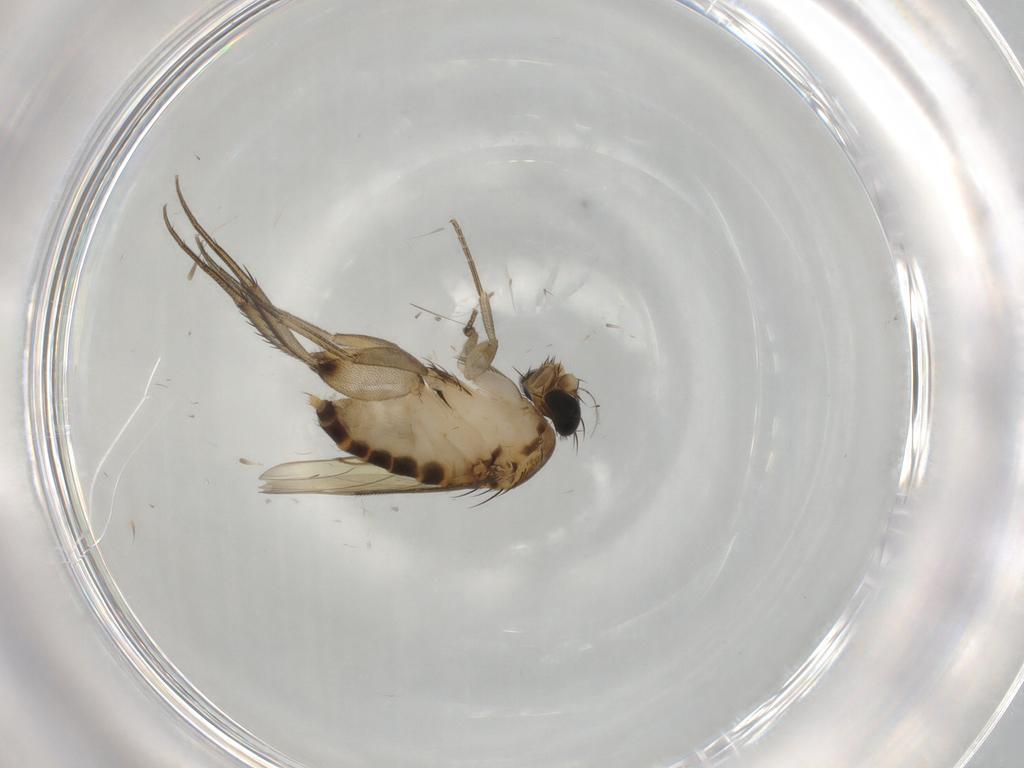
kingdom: Animalia
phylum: Arthropoda
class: Insecta
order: Diptera
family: Phoridae
